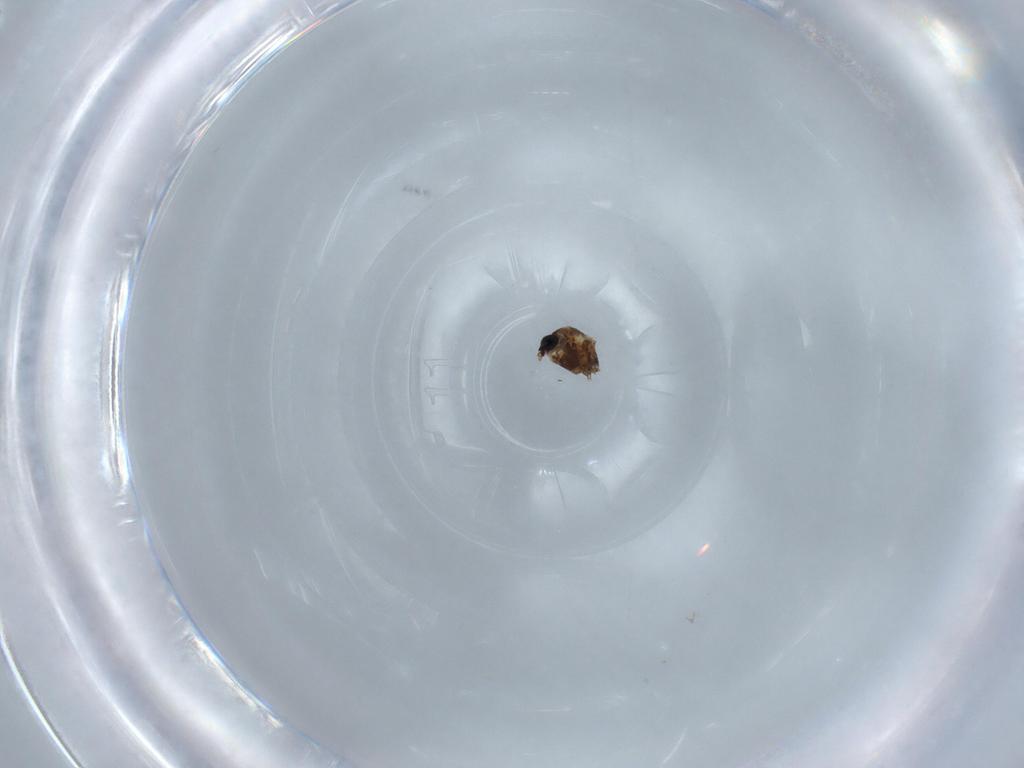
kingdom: Animalia
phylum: Arthropoda
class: Insecta
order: Diptera
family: Ceratopogonidae
